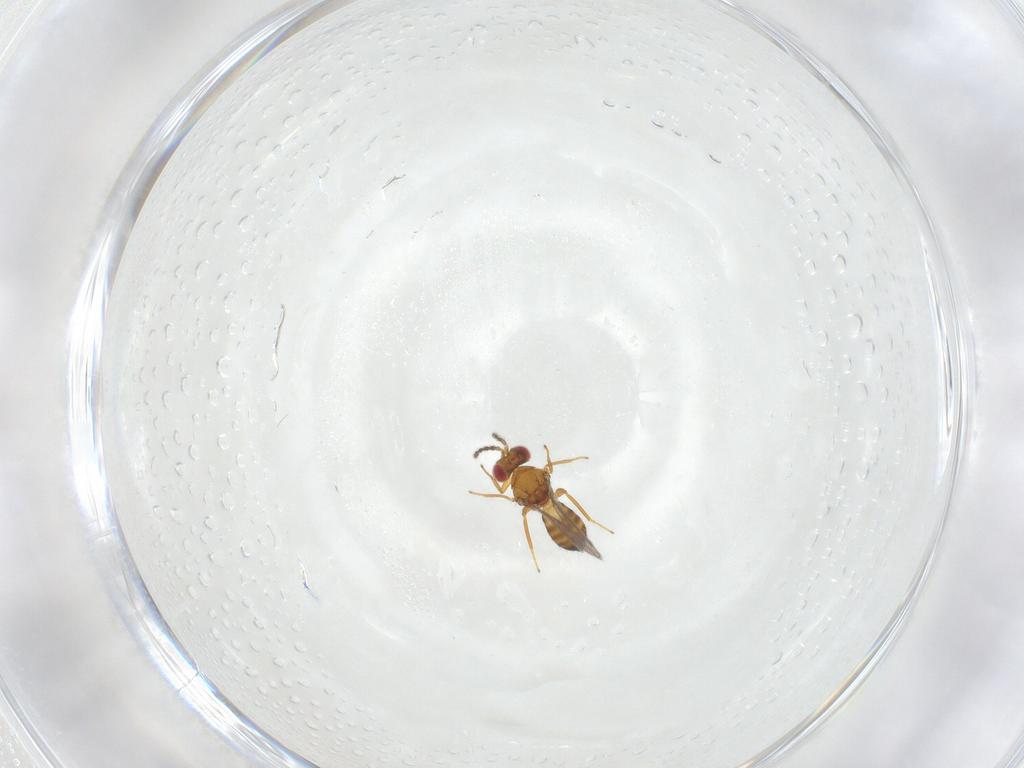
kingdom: Animalia
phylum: Arthropoda
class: Insecta
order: Hymenoptera
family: Eulophidae
